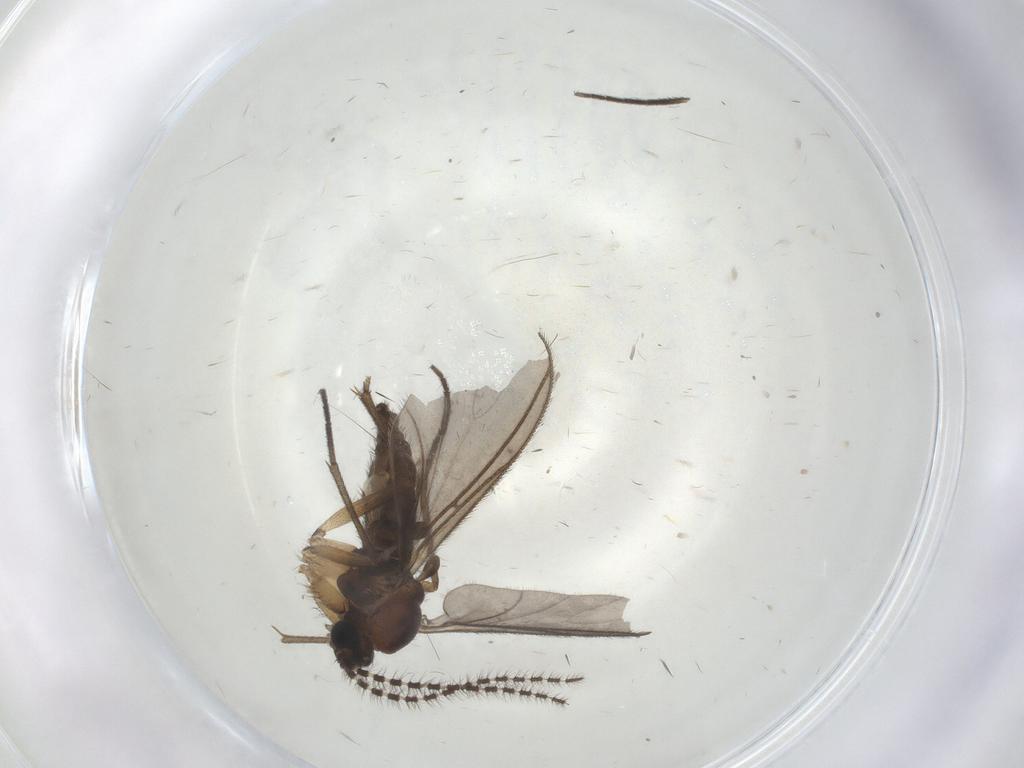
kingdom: Animalia
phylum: Arthropoda
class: Insecta
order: Diptera
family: Sciaridae
